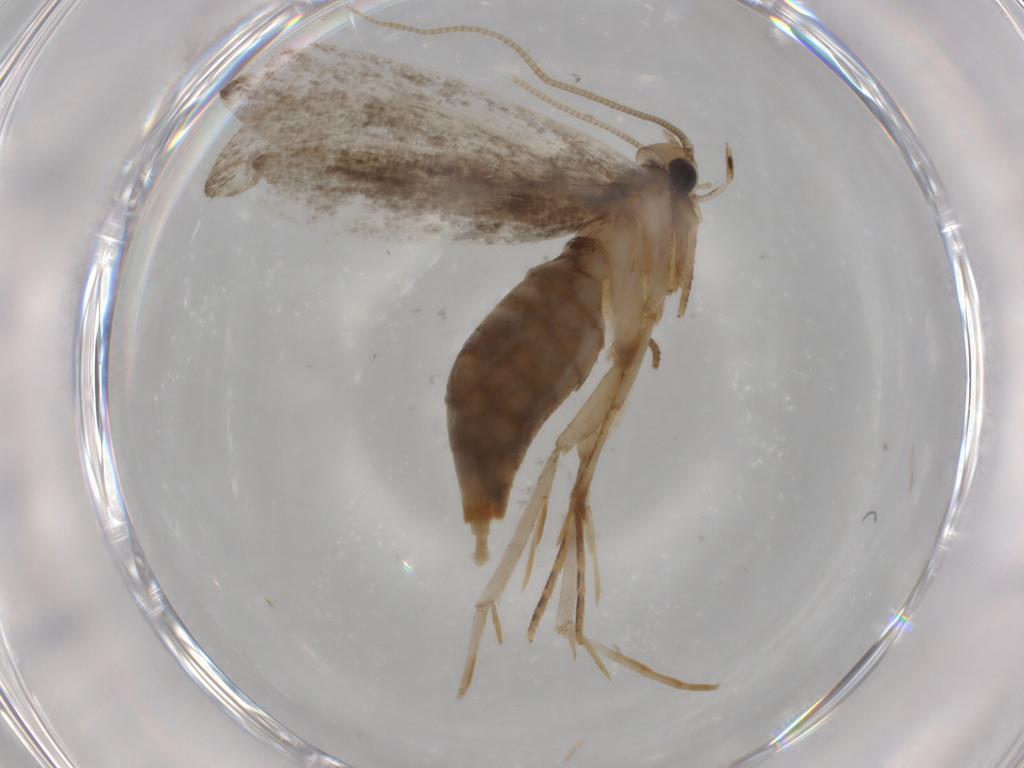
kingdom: Animalia
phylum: Arthropoda
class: Insecta
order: Lepidoptera
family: Tineidae
